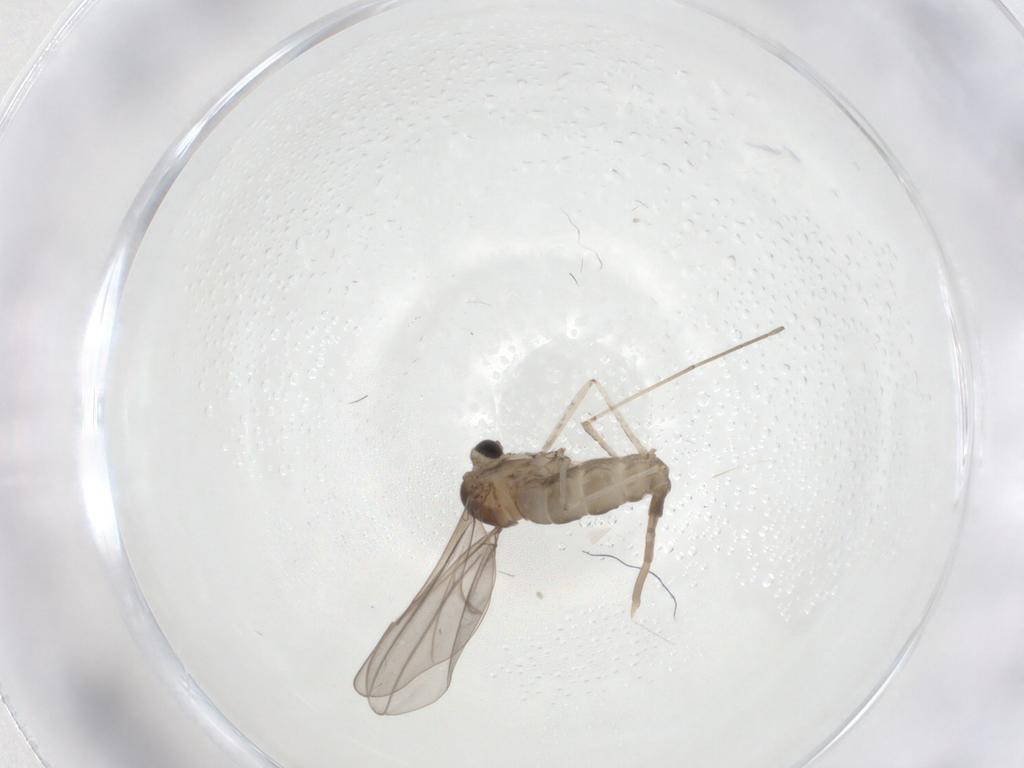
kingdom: Animalia
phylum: Arthropoda
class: Insecta
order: Diptera
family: Cecidomyiidae
